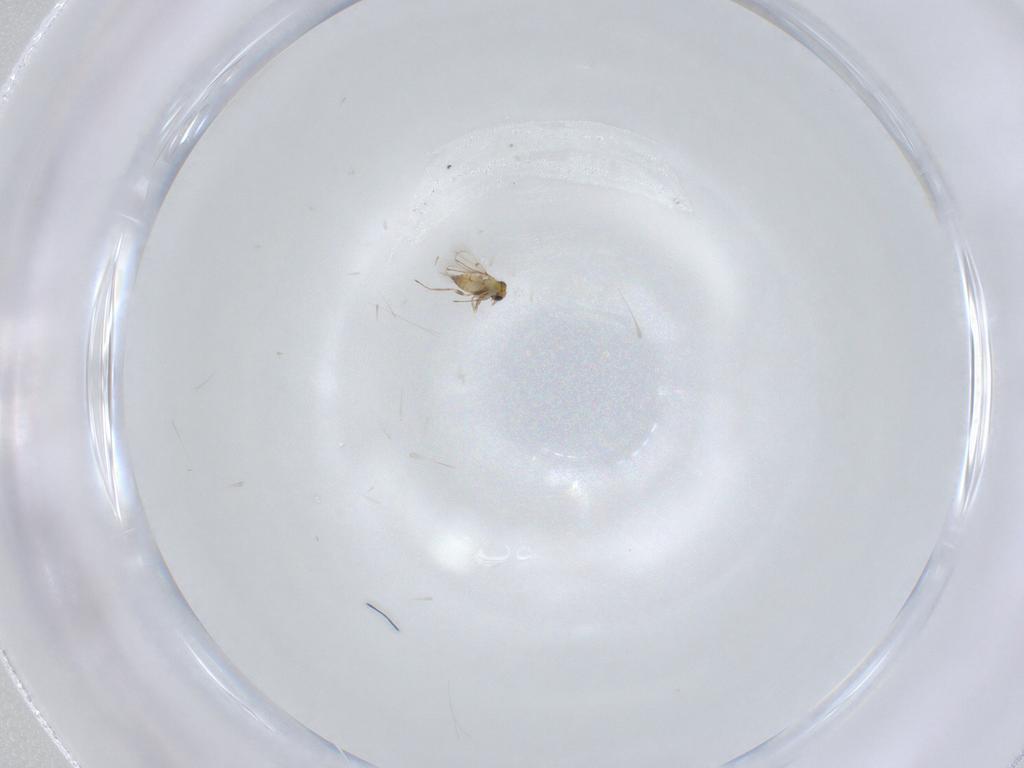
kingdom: Animalia
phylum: Arthropoda
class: Insecta
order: Hymenoptera
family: Trichogrammatidae
